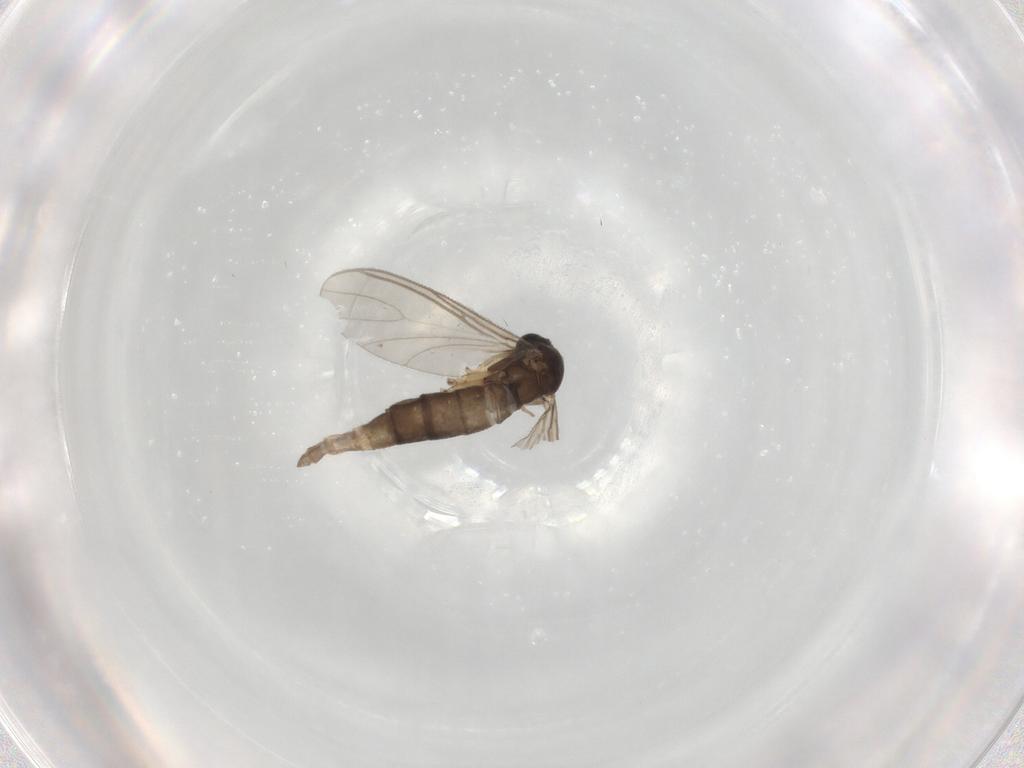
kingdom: Animalia
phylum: Arthropoda
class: Insecta
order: Diptera
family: Sciaridae
